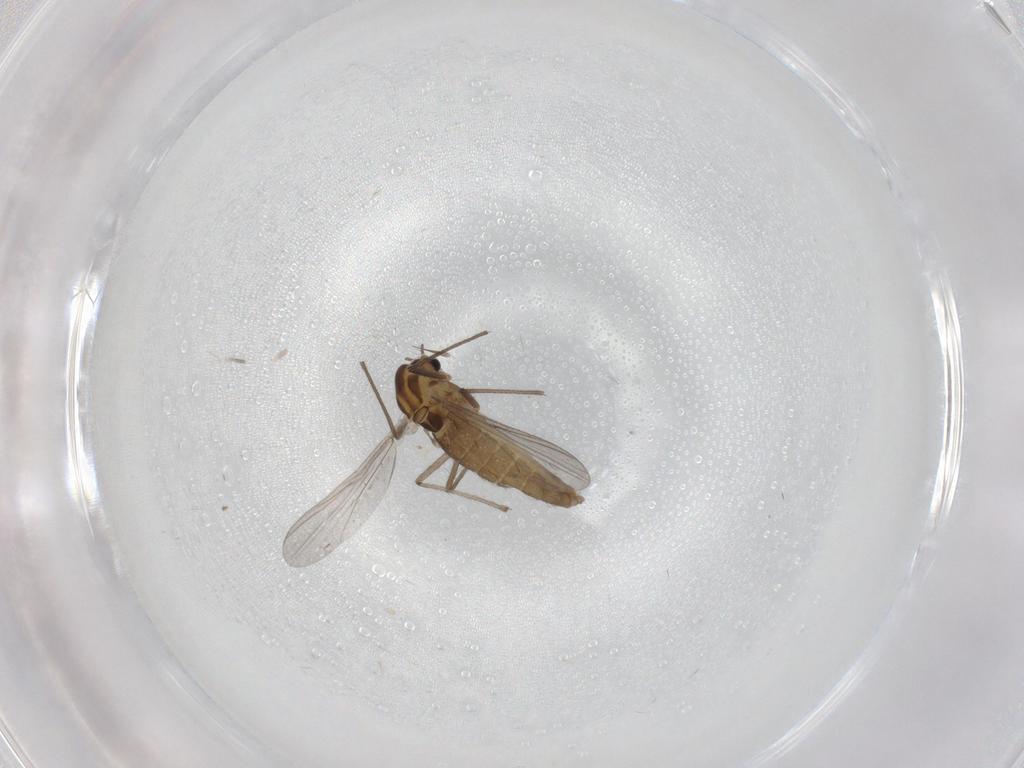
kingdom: Animalia
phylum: Arthropoda
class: Insecta
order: Diptera
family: Chironomidae
